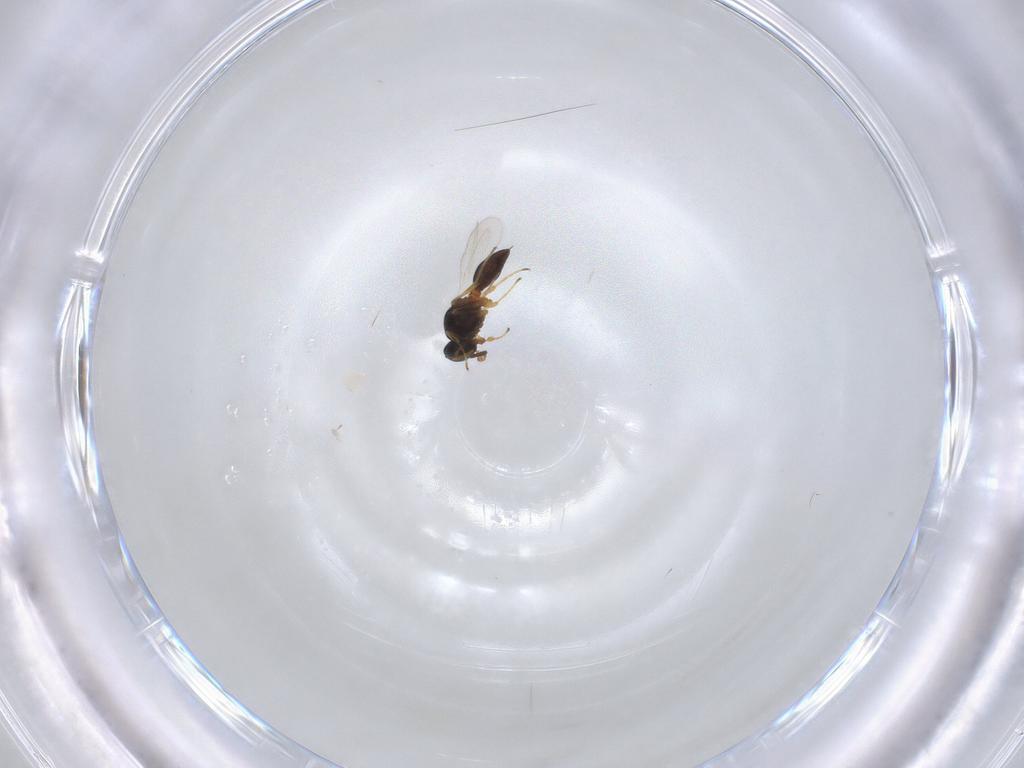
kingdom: Animalia
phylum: Arthropoda
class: Insecta
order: Hymenoptera
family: Platygastridae
